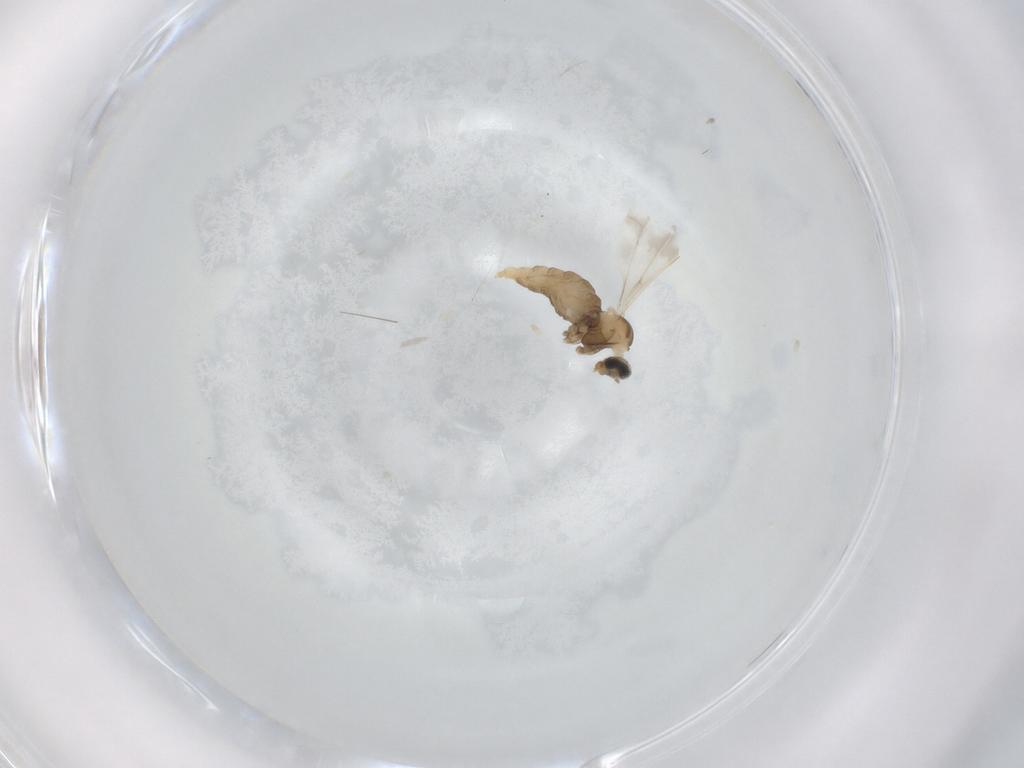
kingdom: Animalia
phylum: Arthropoda
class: Insecta
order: Diptera
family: Cecidomyiidae
